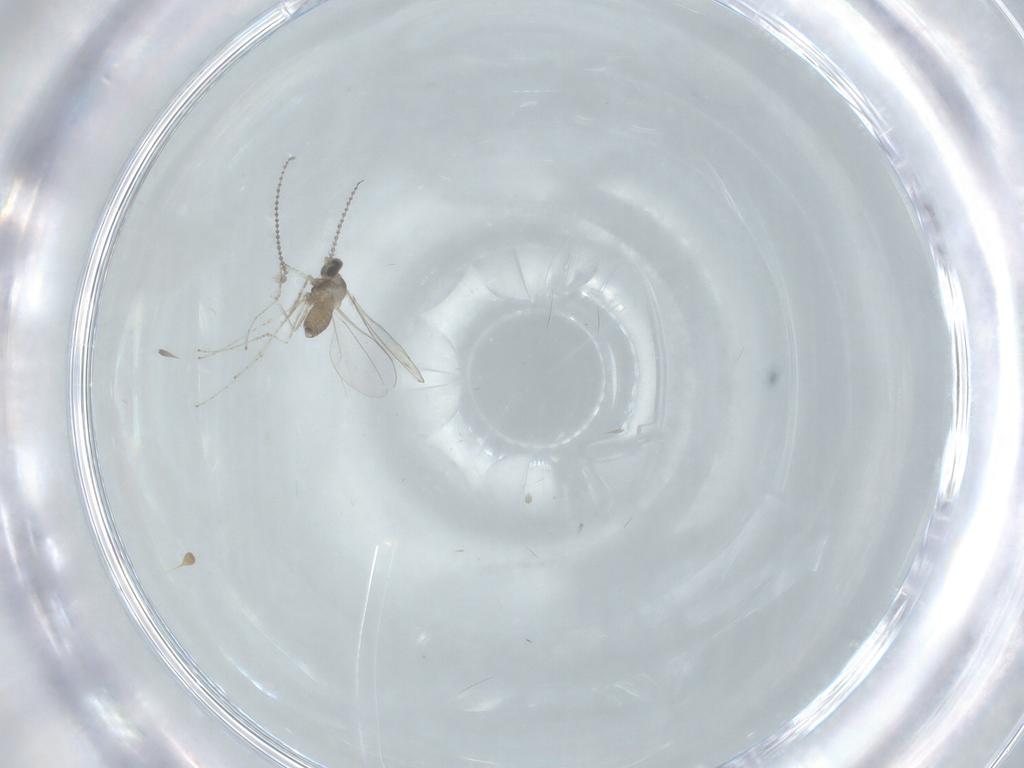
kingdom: Animalia
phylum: Arthropoda
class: Insecta
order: Diptera
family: Cecidomyiidae
